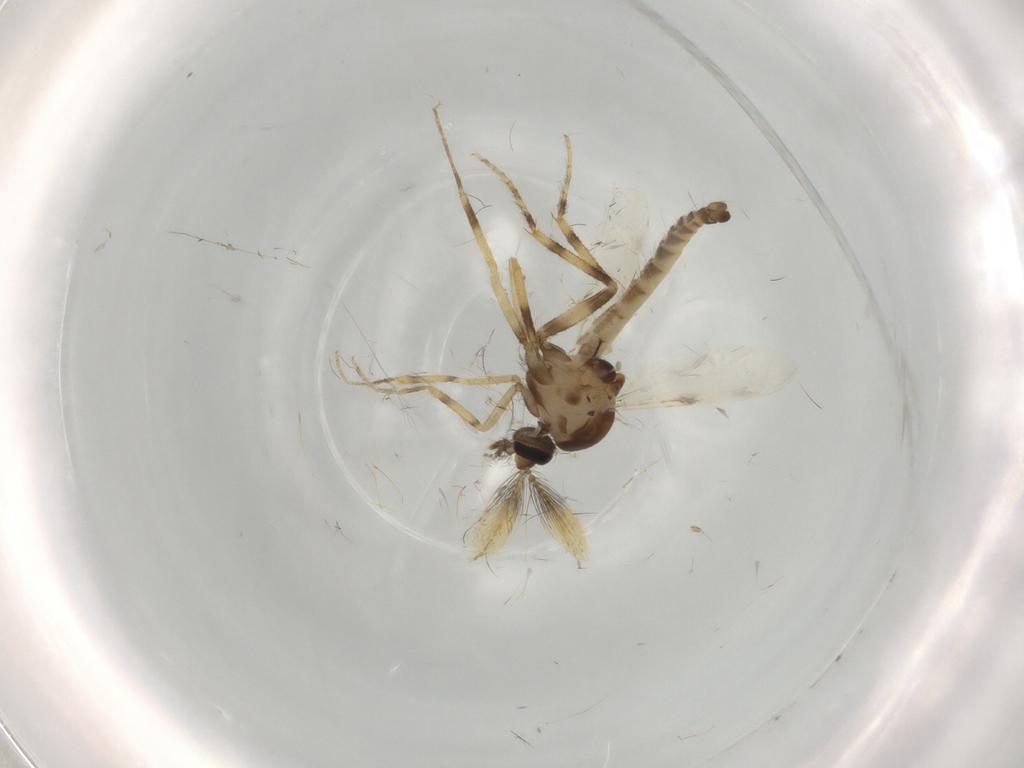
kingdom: Animalia
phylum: Arthropoda
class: Insecta
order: Diptera
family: Ceratopogonidae
